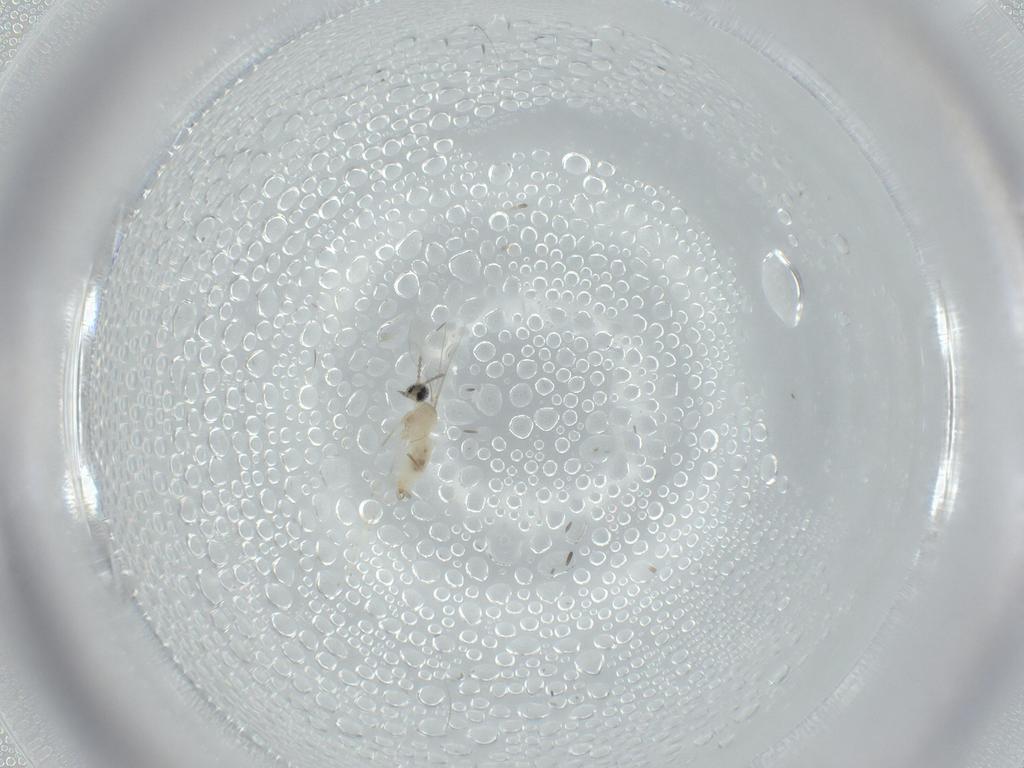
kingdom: Animalia
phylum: Arthropoda
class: Insecta
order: Diptera
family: Cecidomyiidae
